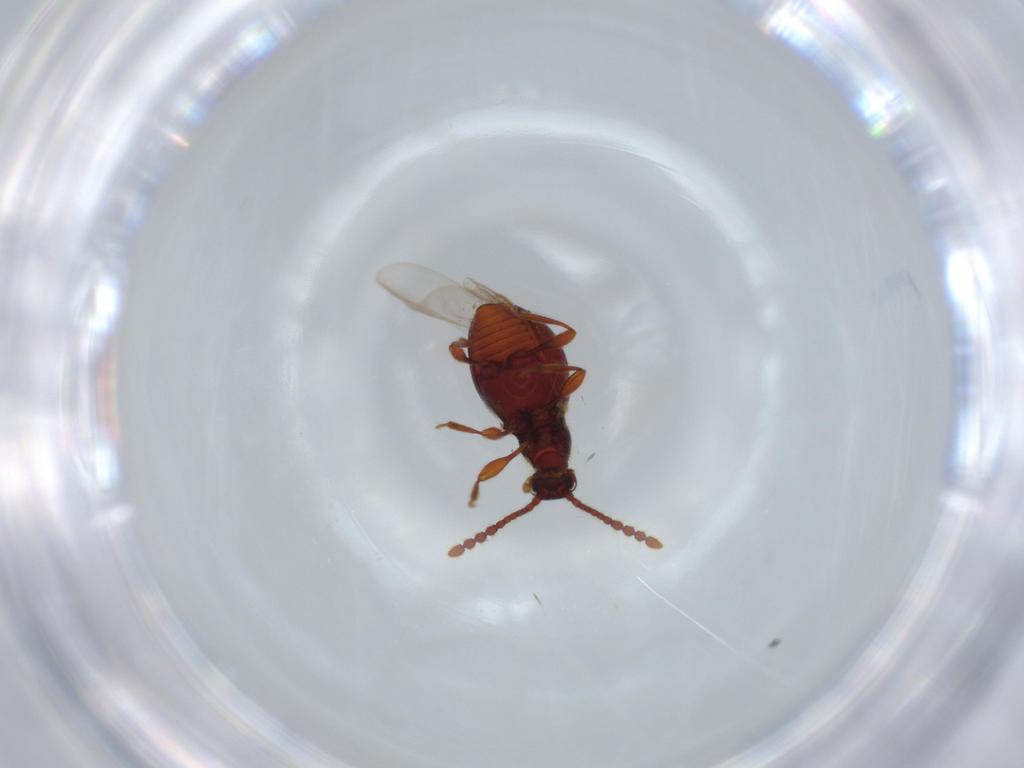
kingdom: Animalia
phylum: Arthropoda
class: Insecta
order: Coleoptera
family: Staphylinidae
